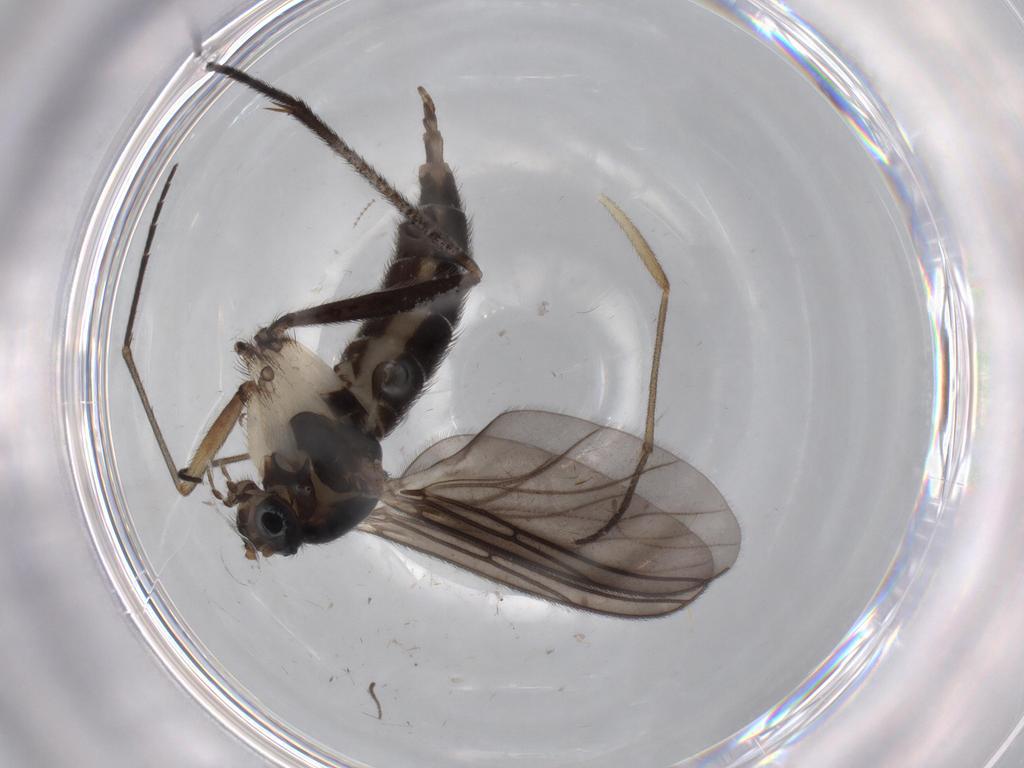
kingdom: Animalia
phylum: Arthropoda
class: Insecta
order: Diptera
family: Sciaridae
